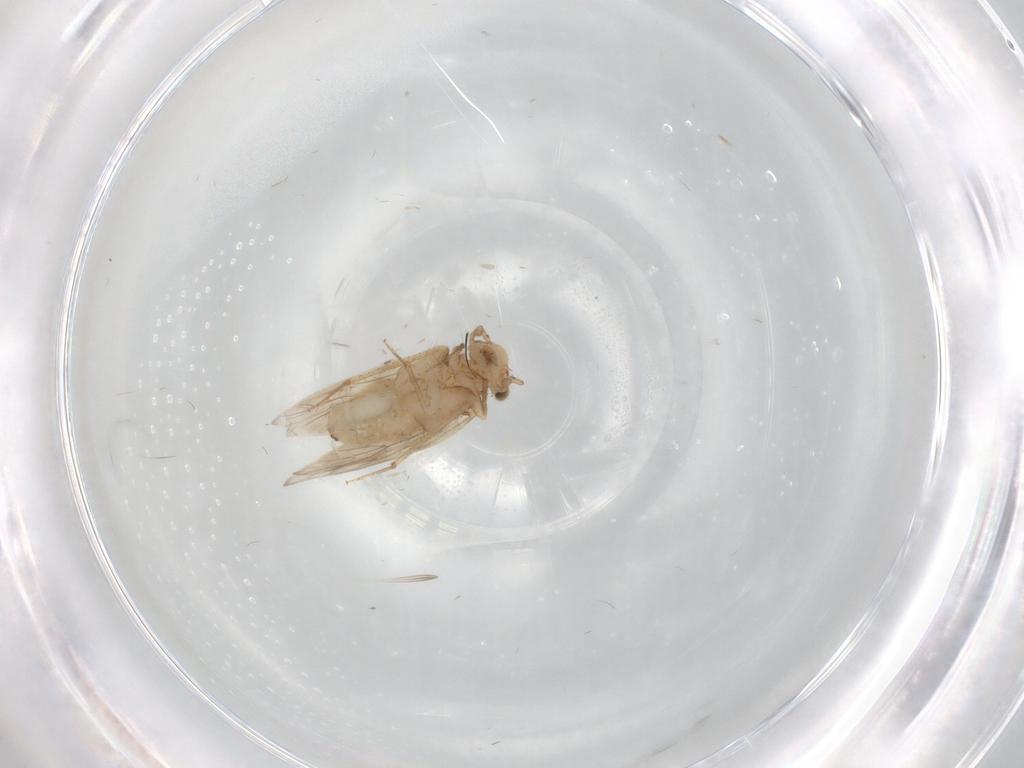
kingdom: Animalia
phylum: Arthropoda
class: Insecta
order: Psocodea
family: Lepidopsocidae
